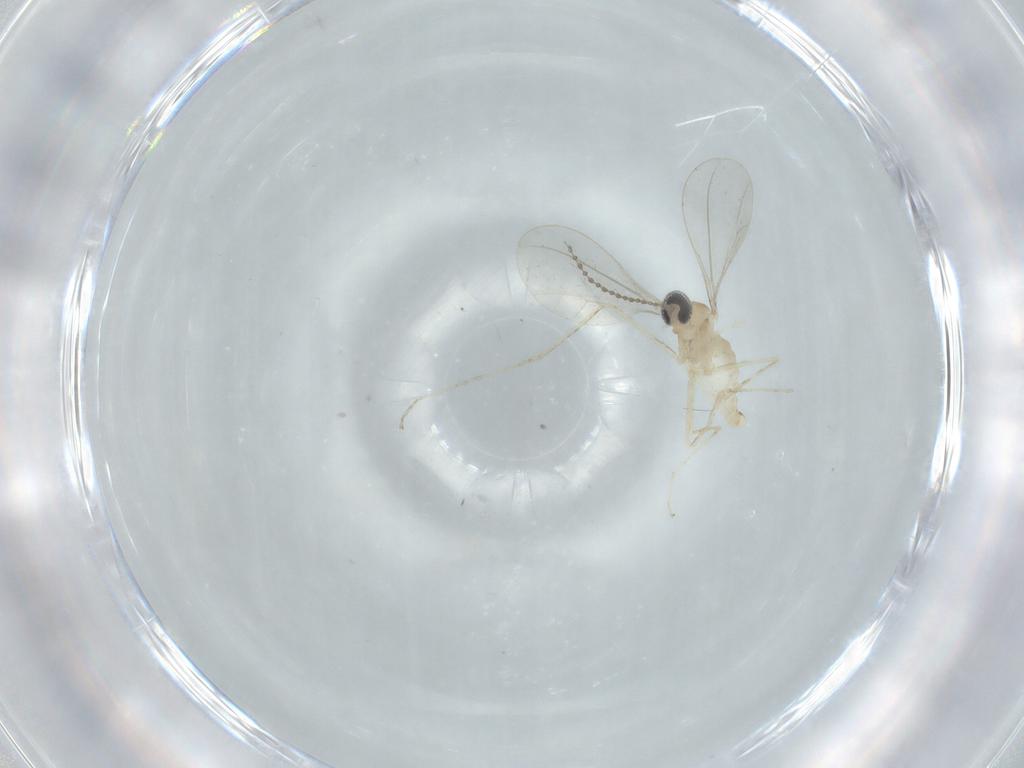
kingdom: Animalia
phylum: Arthropoda
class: Insecta
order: Diptera
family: Cecidomyiidae
